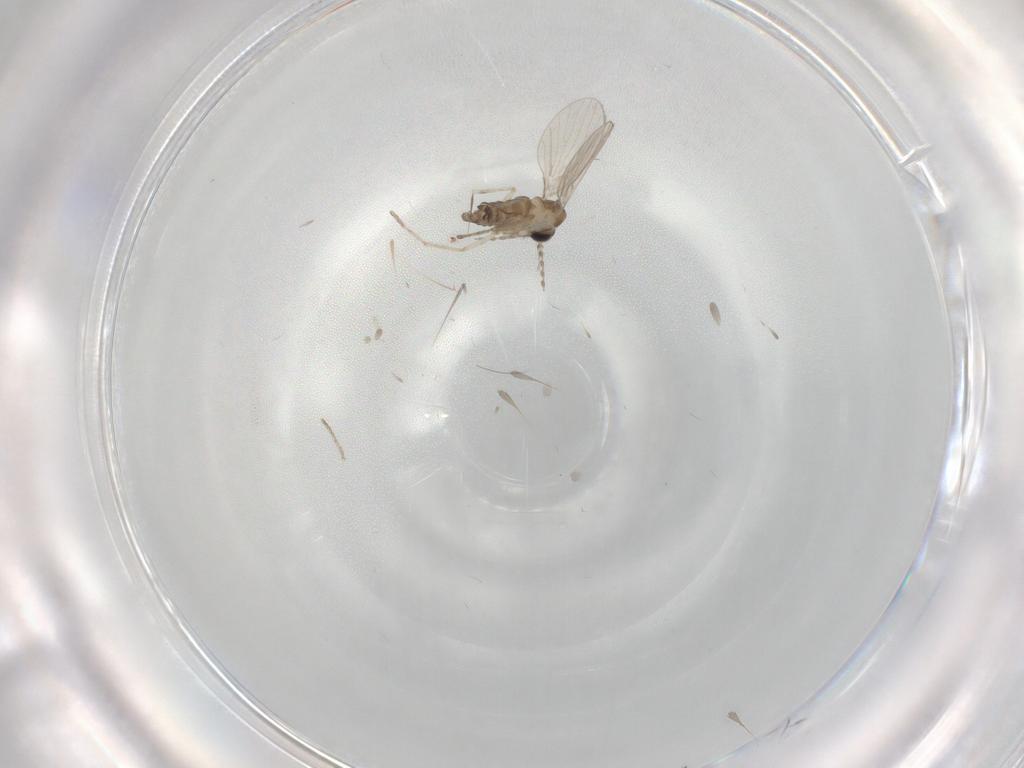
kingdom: Animalia
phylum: Arthropoda
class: Insecta
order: Diptera
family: Cecidomyiidae
